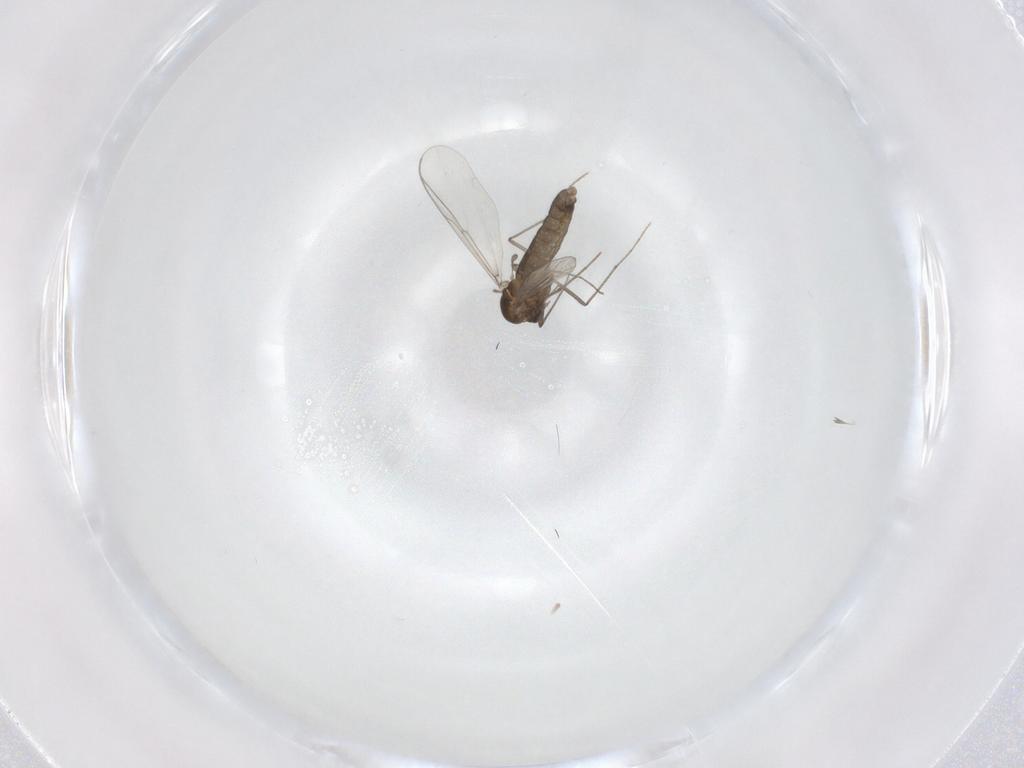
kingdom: Animalia
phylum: Arthropoda
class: Insecta
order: Diptera
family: Chironomidae
